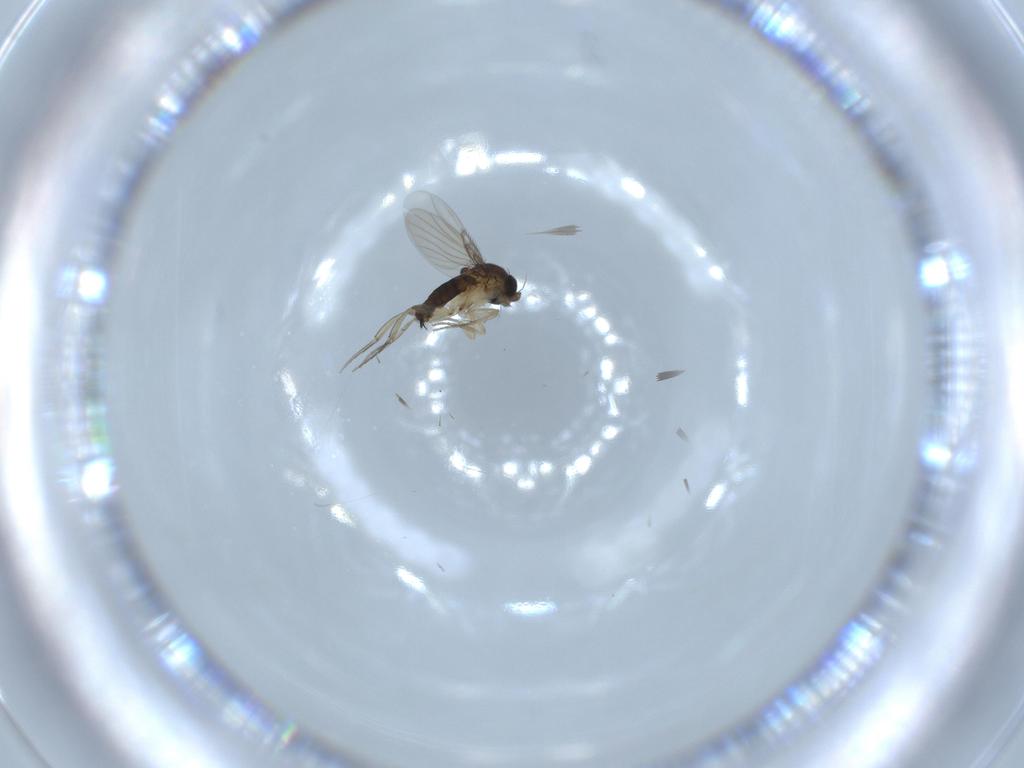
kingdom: Animalia
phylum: Arthropoda
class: Insecta
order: Diptera
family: Phoridae
